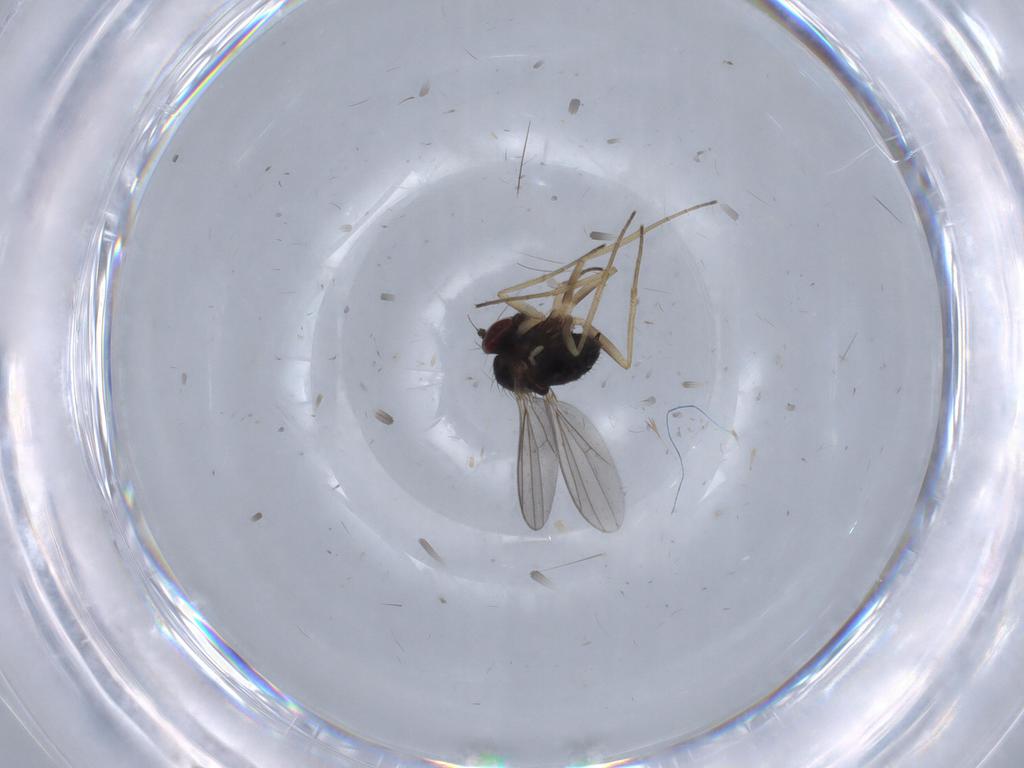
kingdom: Animalia
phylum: Arthropoda
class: Insecta
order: Diptera
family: Dolichopodidae
